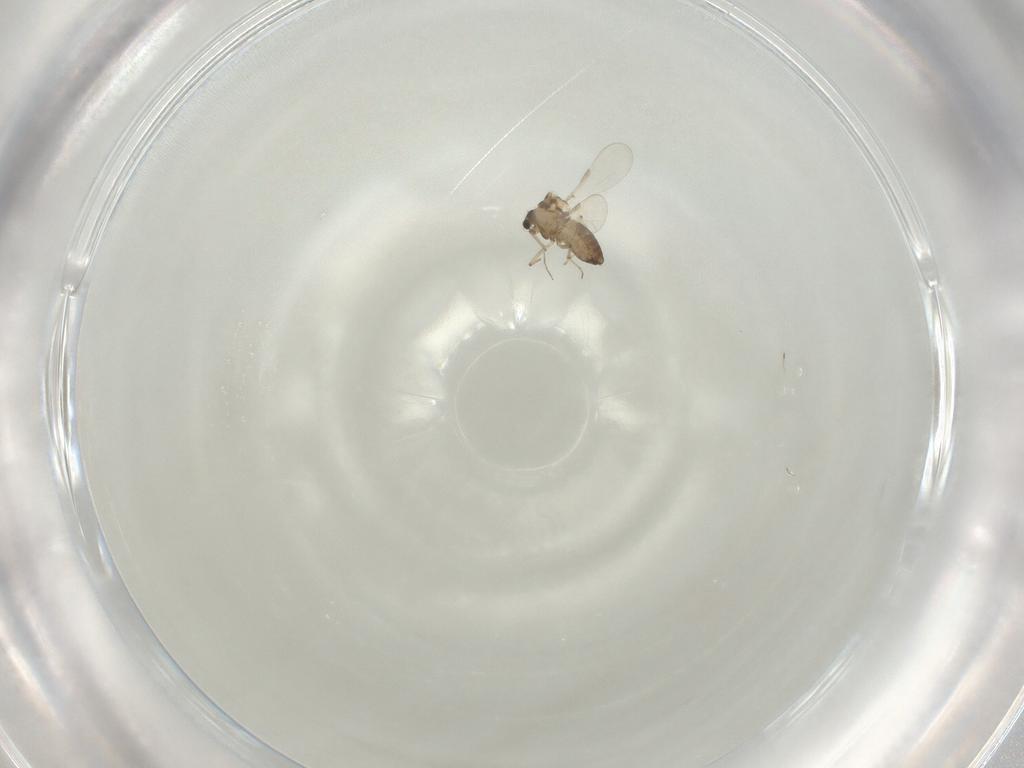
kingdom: Animalia
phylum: Arthropoda
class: Insecta
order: Diptera
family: Chironomidae
